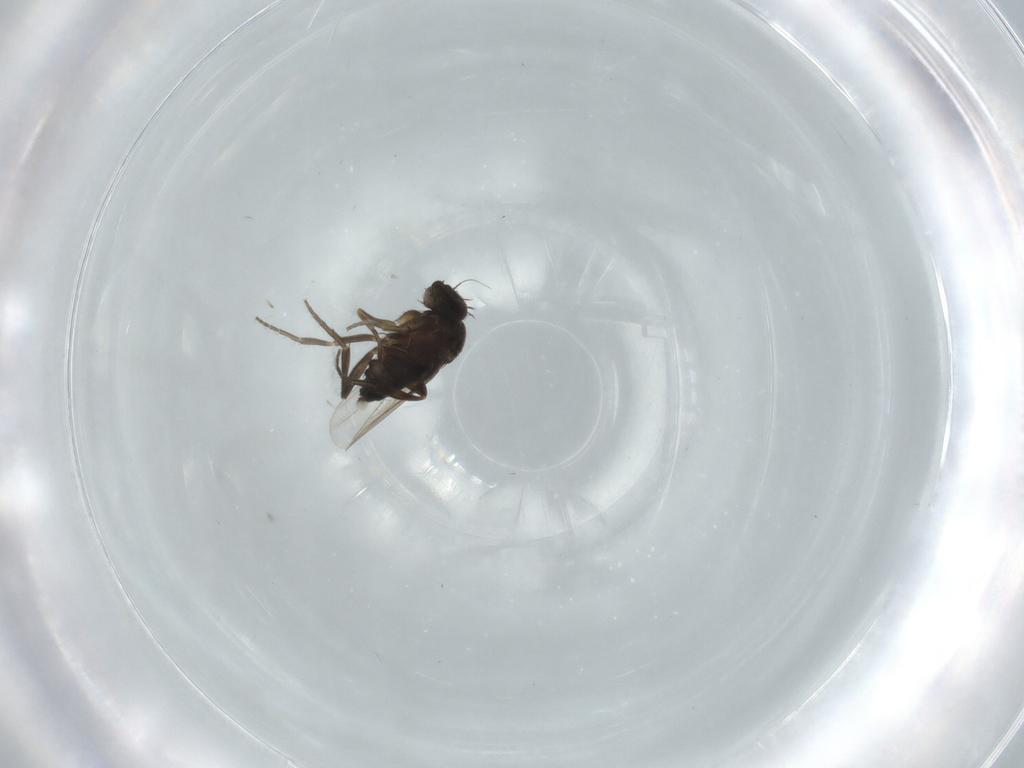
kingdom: Animalia
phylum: Arthropoda
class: Insecta
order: Diptera
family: Phoridae
